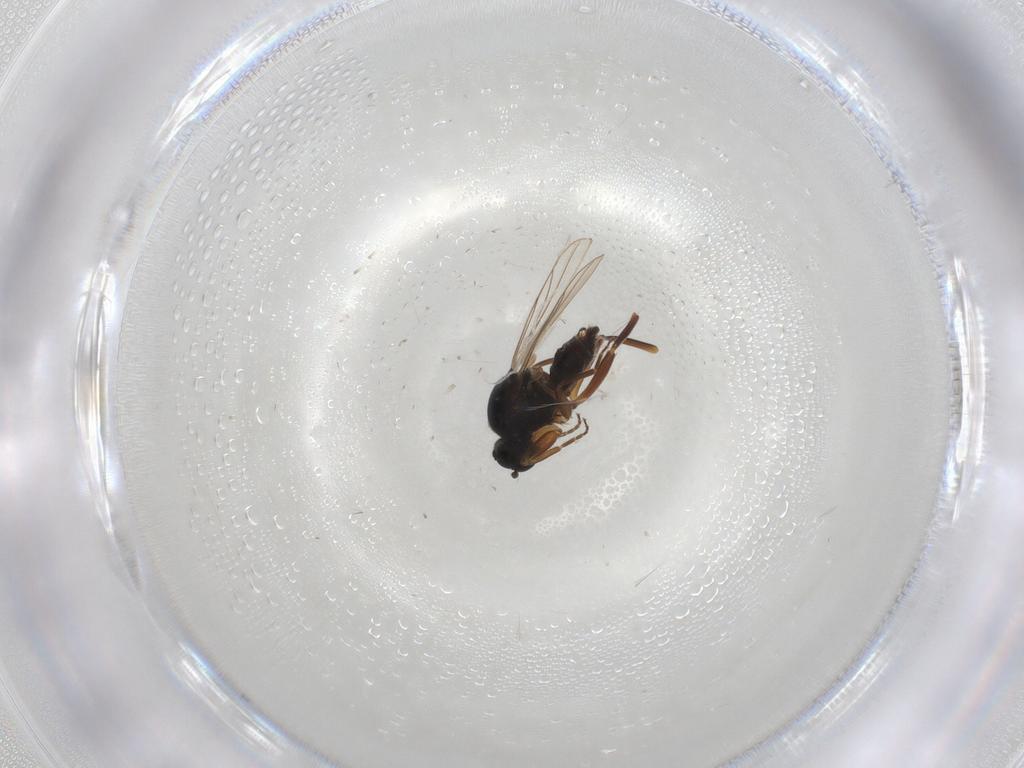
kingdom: Animalia
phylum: Arthropoda
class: Insecta
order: Diptera
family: Hybotidae
